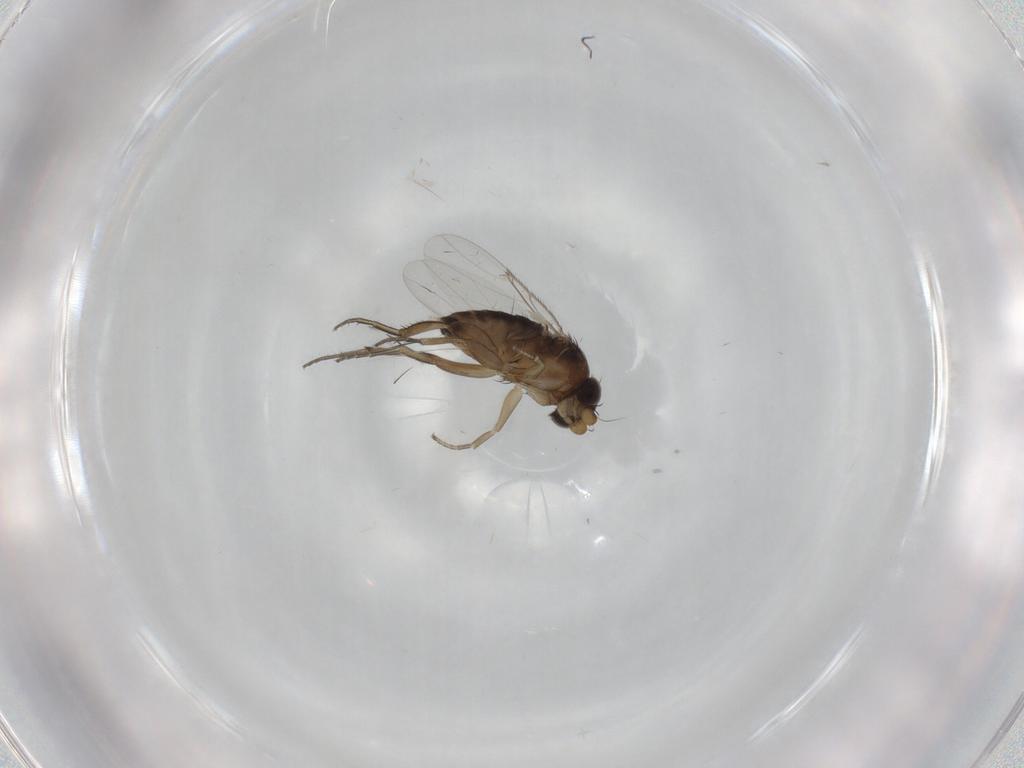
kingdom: Animalia
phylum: Arthropoda
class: Insecta
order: Diptera
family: Phoridae
